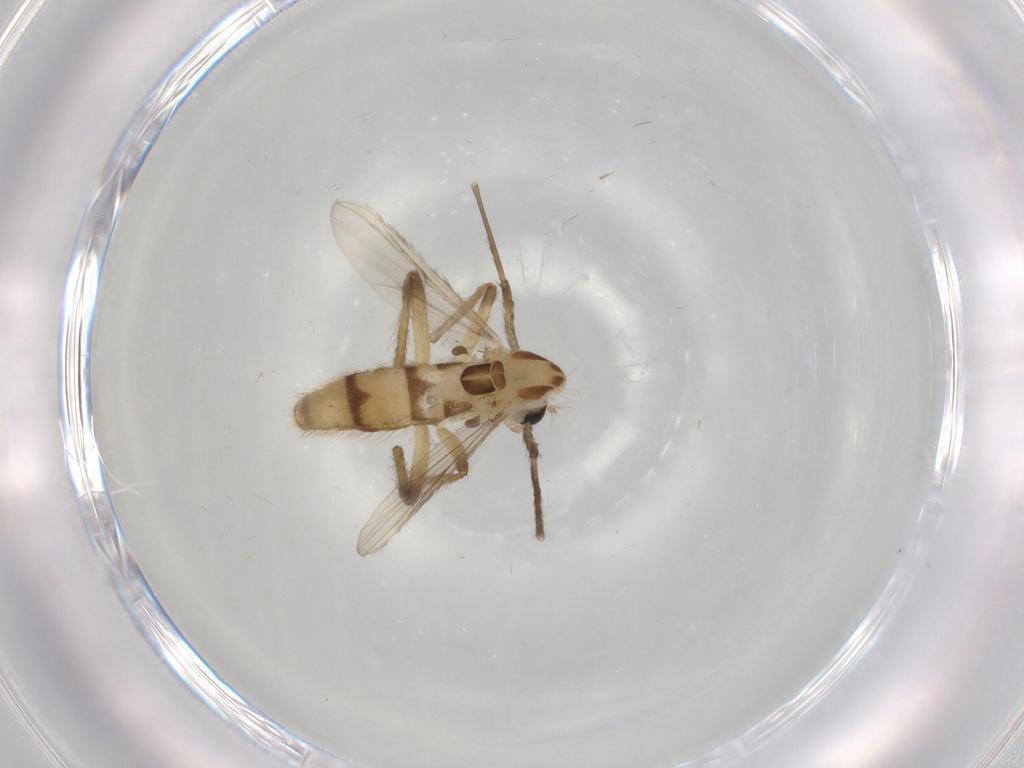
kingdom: Animalia
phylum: Arthropoda
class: Insecta
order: Diptera
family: Chironomidae
